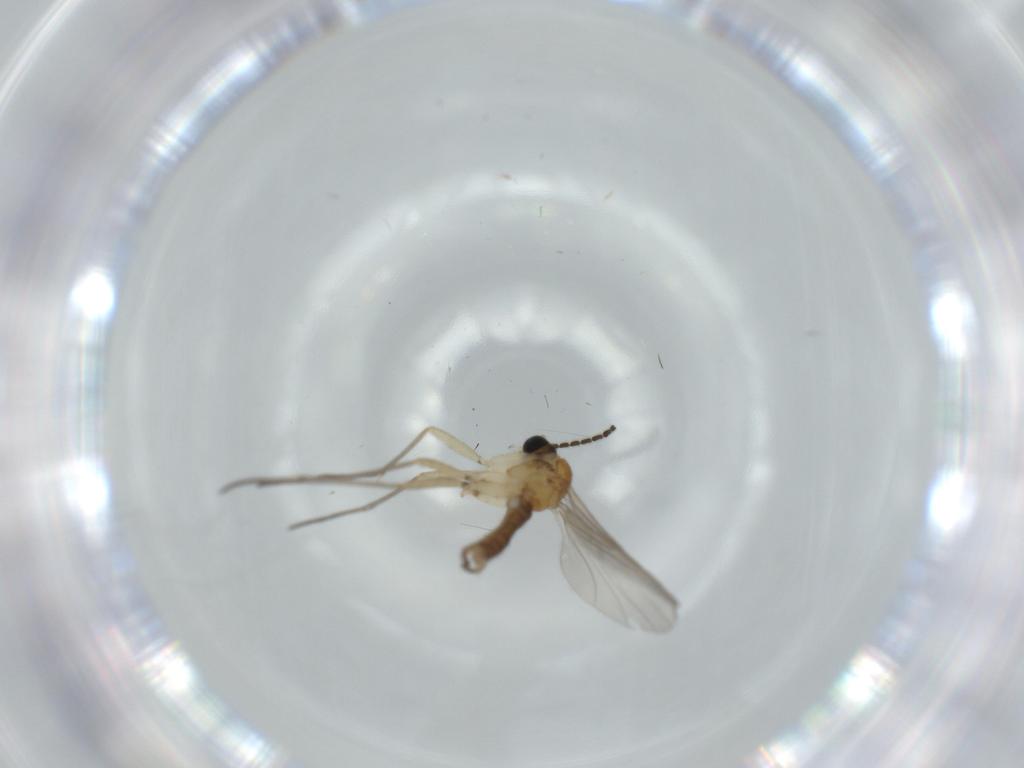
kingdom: Animalia
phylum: Arthropoda
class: Insecta
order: Diptera
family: Sciaridae
